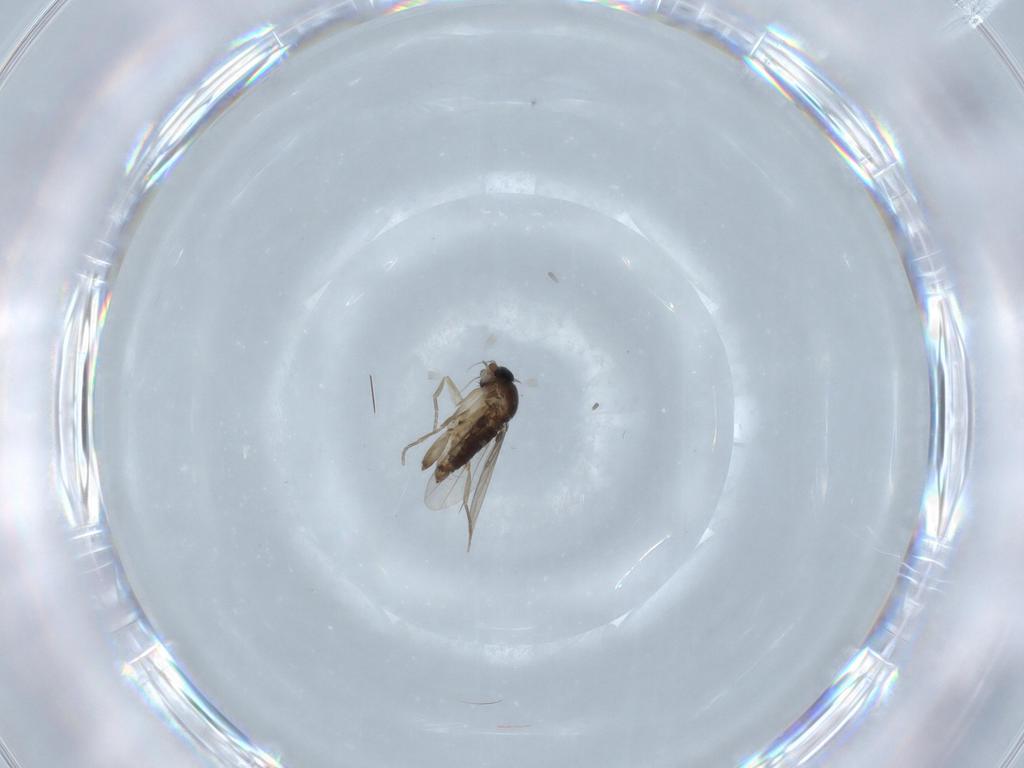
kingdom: Animalia
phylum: Arthropoda
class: Insecta
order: Diptera
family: Phoridae
